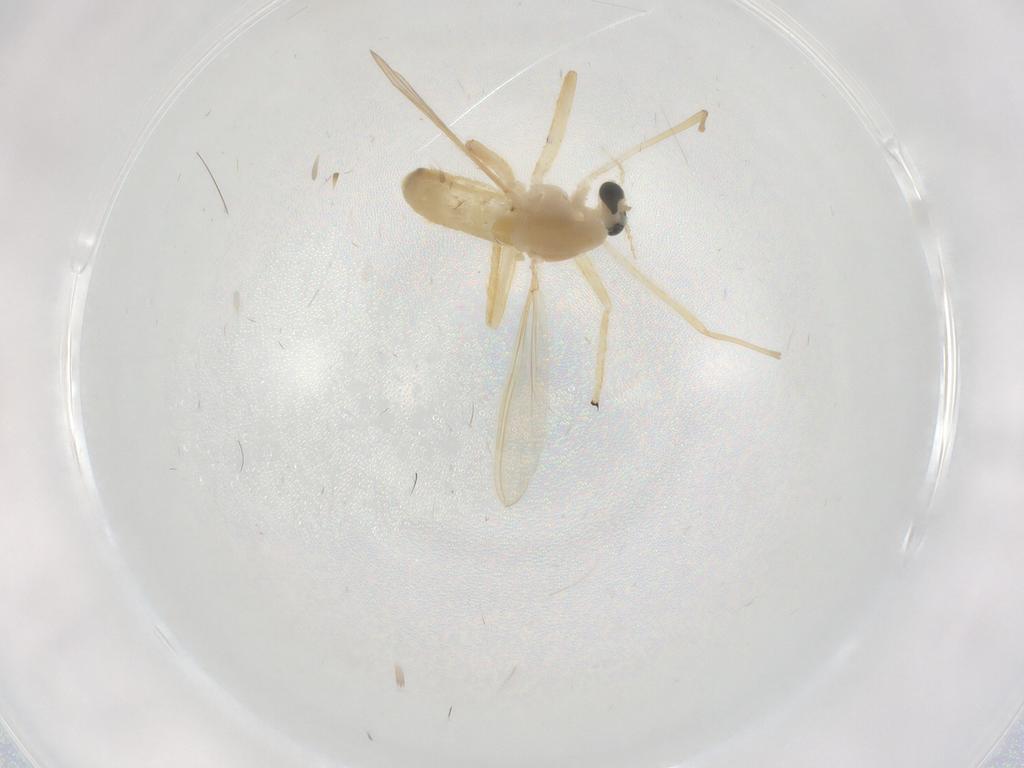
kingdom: Animalia
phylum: Arthropoda
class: Insecta
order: Diptera
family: Chironomidae
